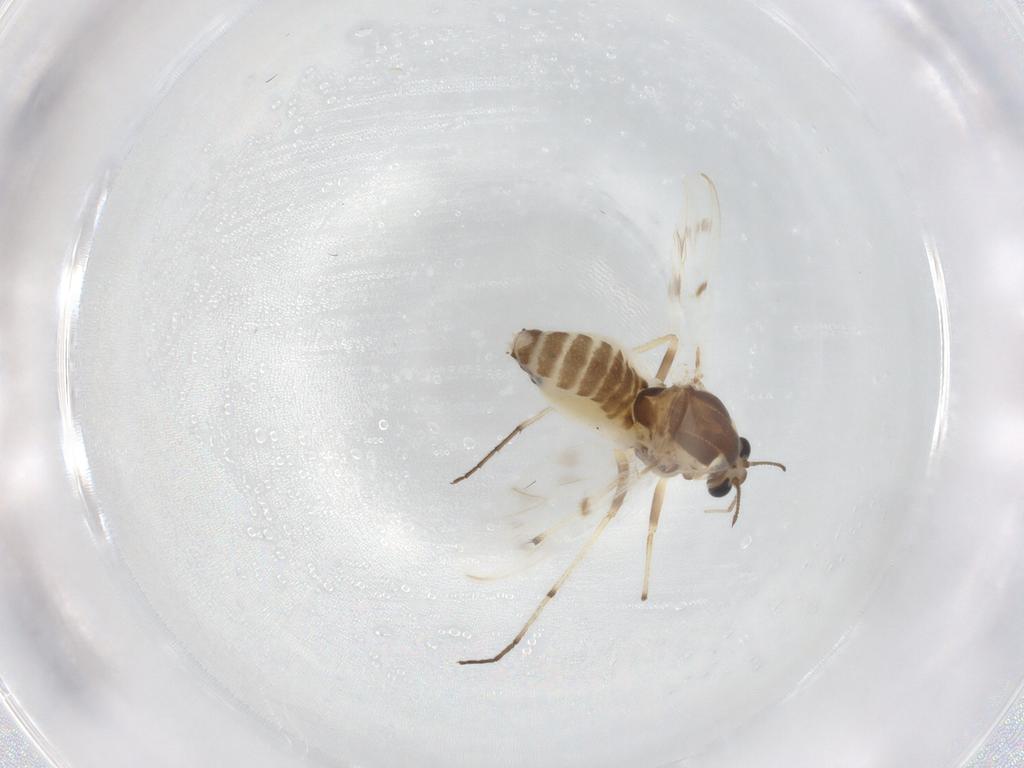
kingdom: Animalia
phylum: Arthropoda
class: Insecta
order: Diptera
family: Chironomidae
